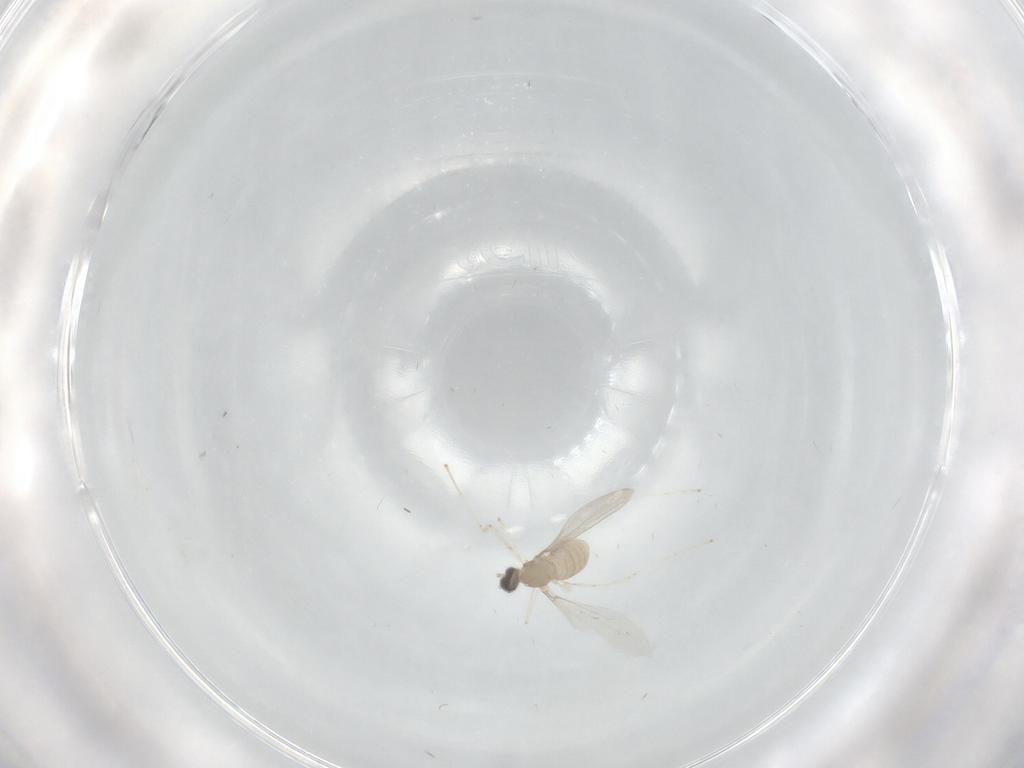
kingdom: Animalia
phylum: Arthropoda
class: Insecta
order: Diptera
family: Cecidomyiidae
